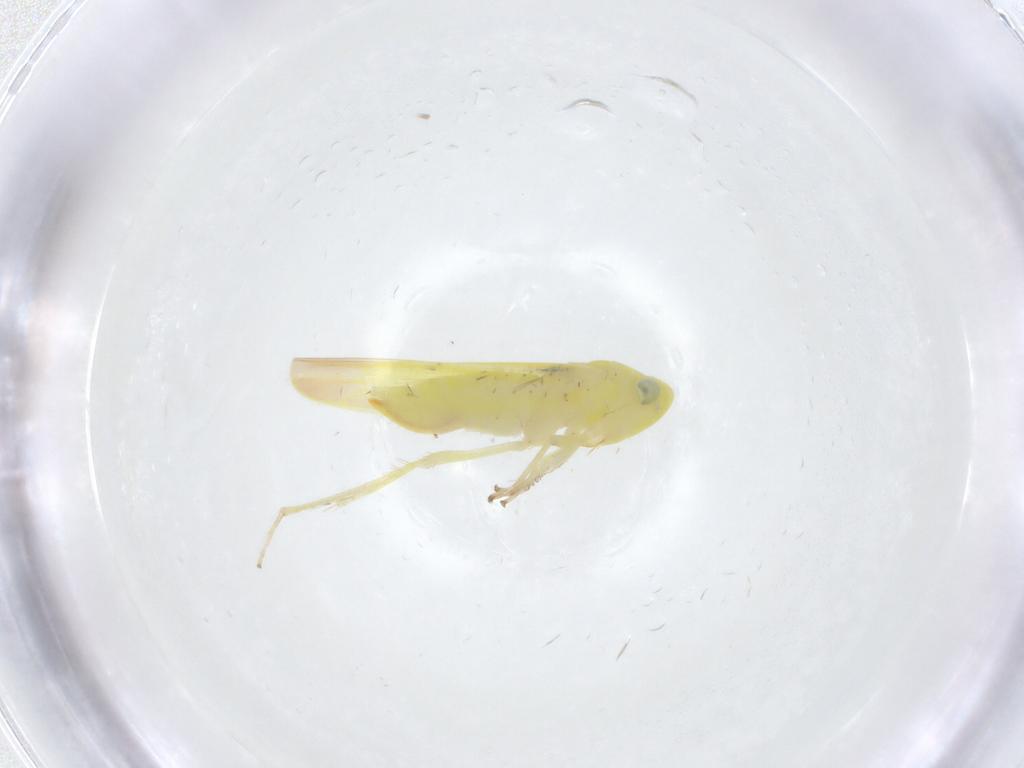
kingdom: Animalia
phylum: Arthropoda
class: Insecta
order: Hemiptera
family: Cicadellidae
